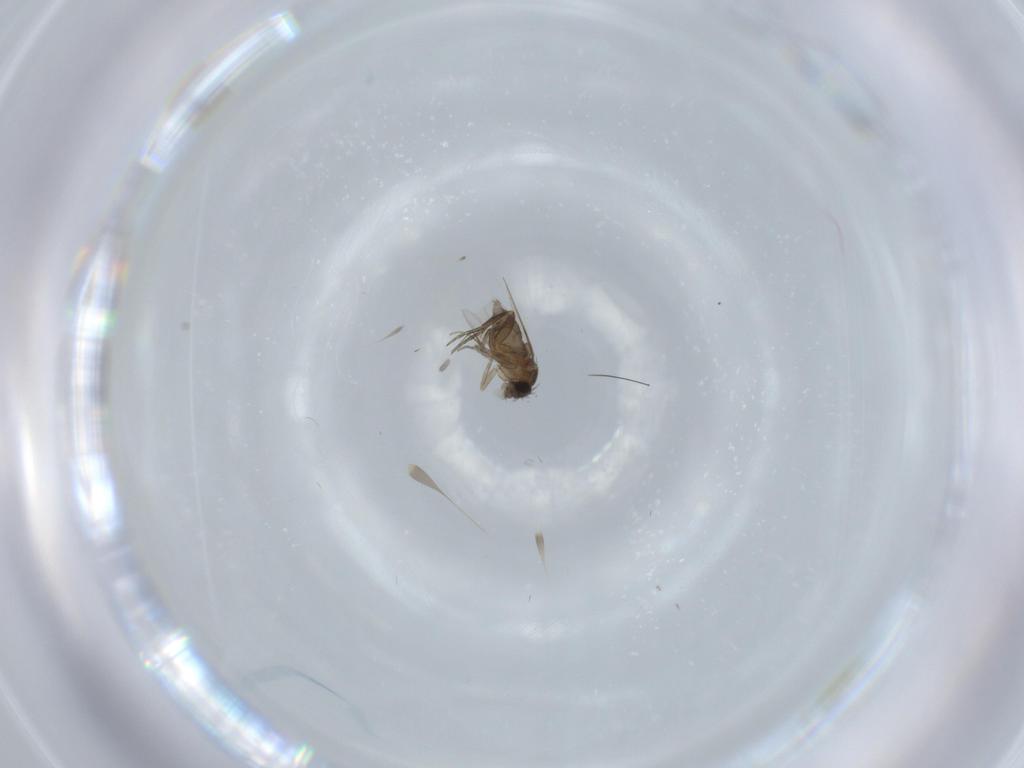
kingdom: Animalia
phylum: Arthropoda
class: Insecta
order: Diptera
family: Phoridae
